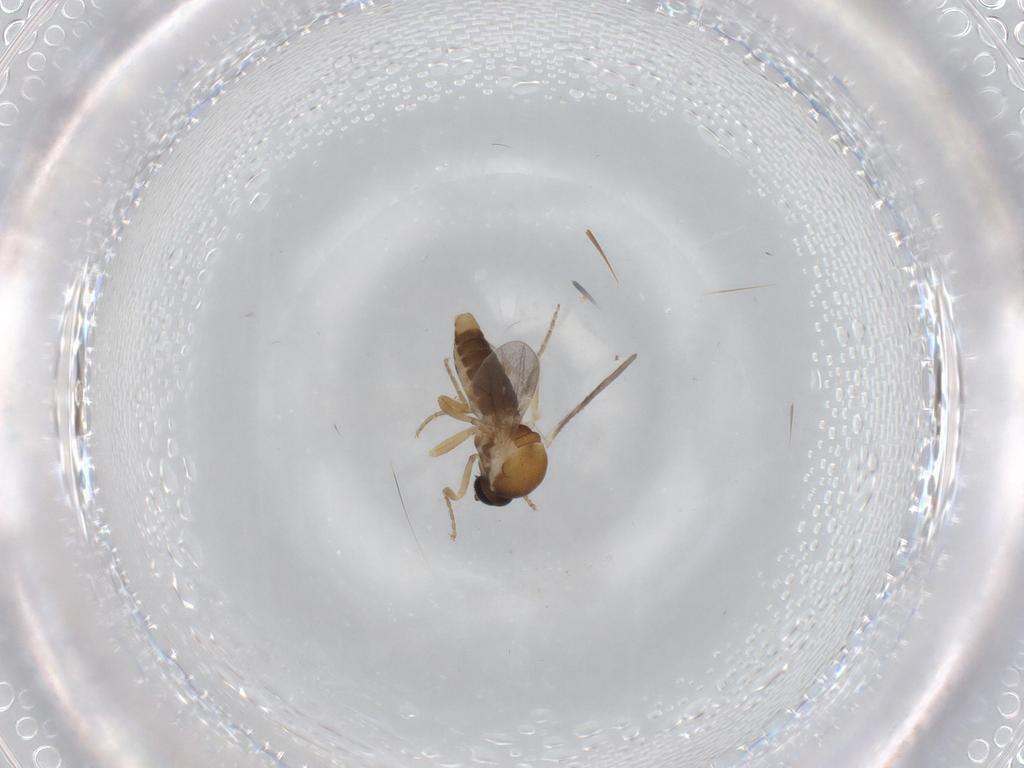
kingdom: Animalia
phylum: Arthropoda
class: Insecta
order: Diptera
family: Ceratopogonidae
